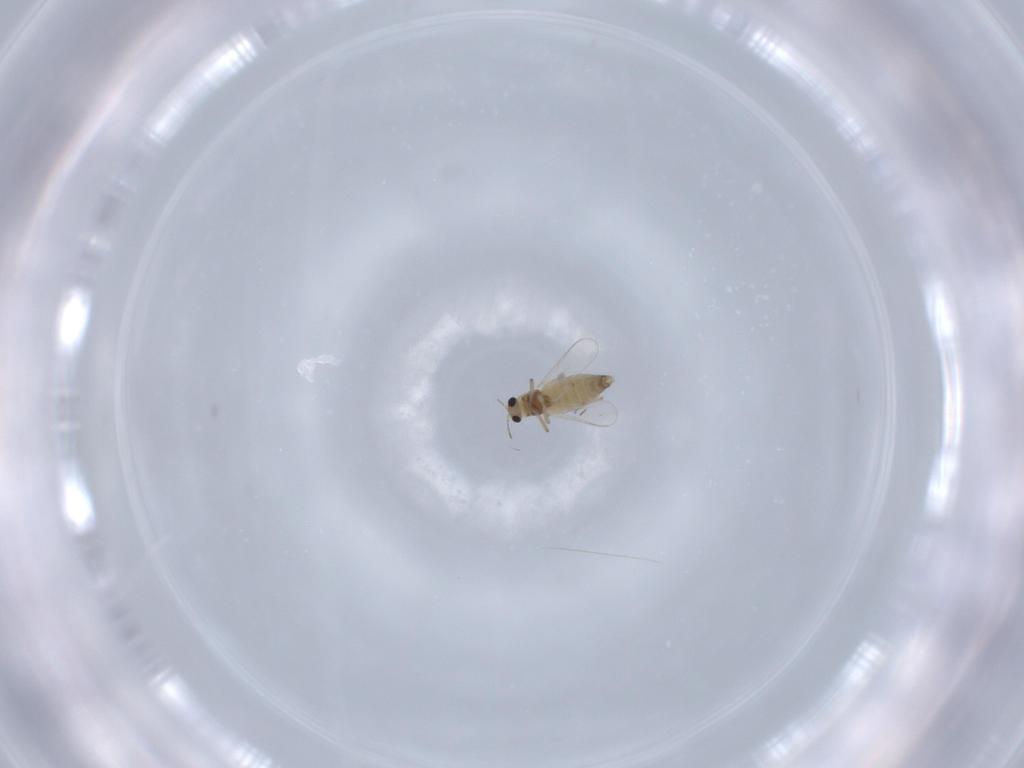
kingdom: Animalia
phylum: Arthropoda
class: Insecta
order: Diptera
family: Chironomidae
